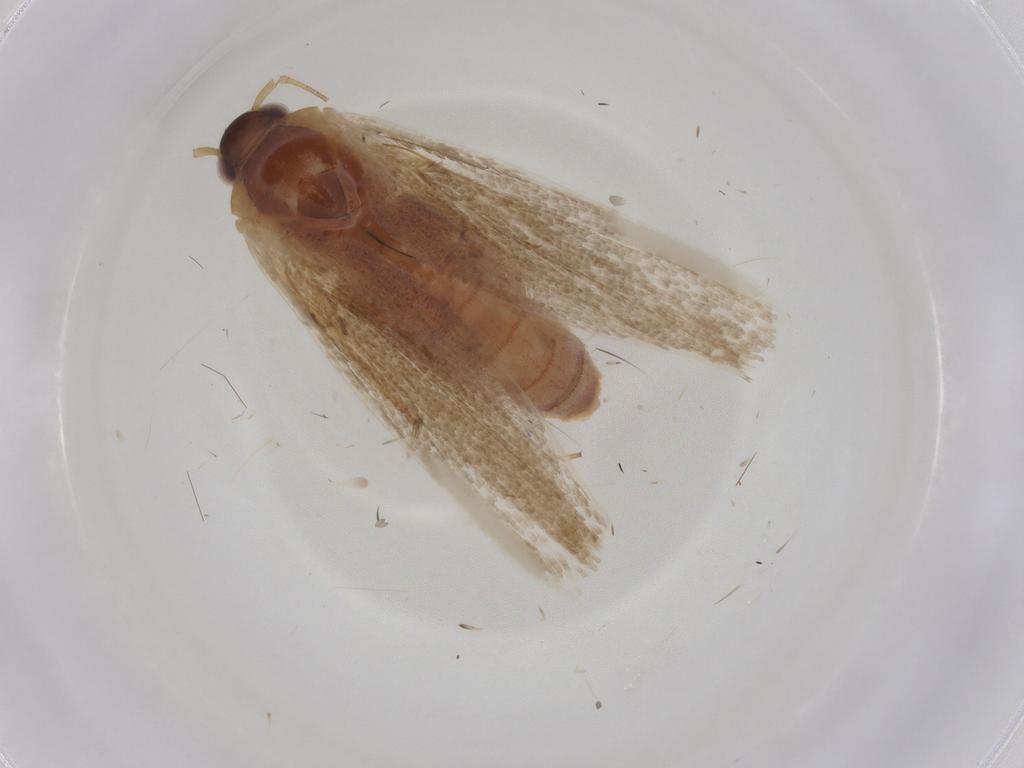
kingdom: Animalia
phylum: Arthropoda
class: Insecta
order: Lepidoptera
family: Blastobasidae
